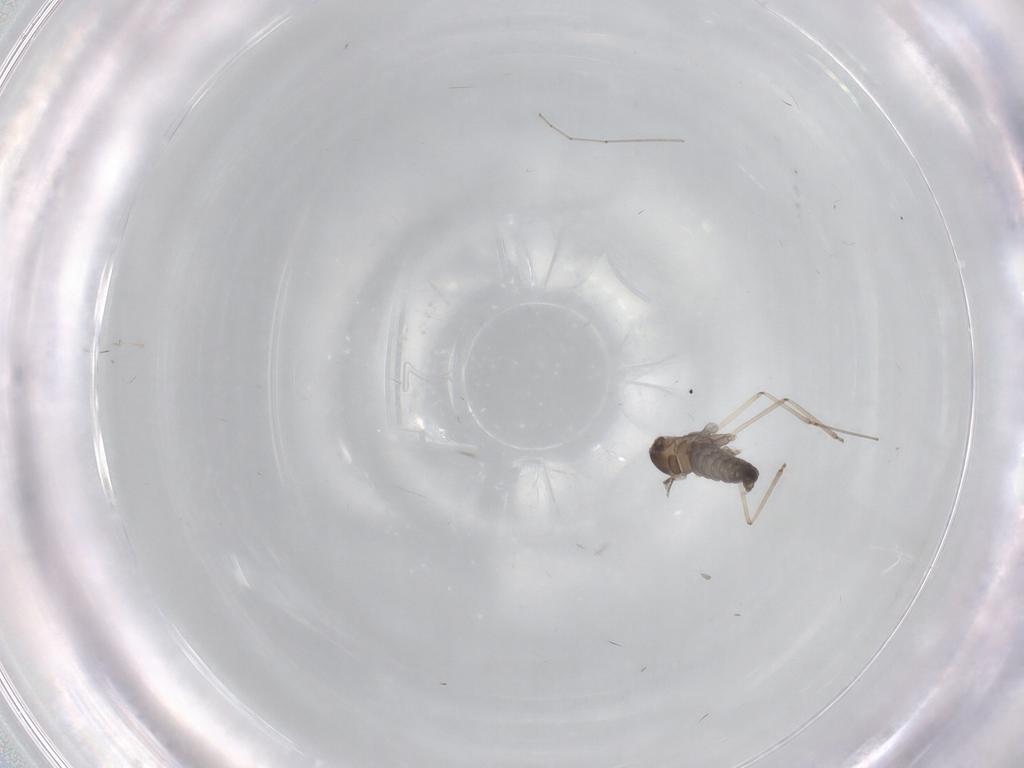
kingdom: Animalia
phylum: Arthropoda
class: Insecta
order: Diptera
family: Cecidomyiidae
